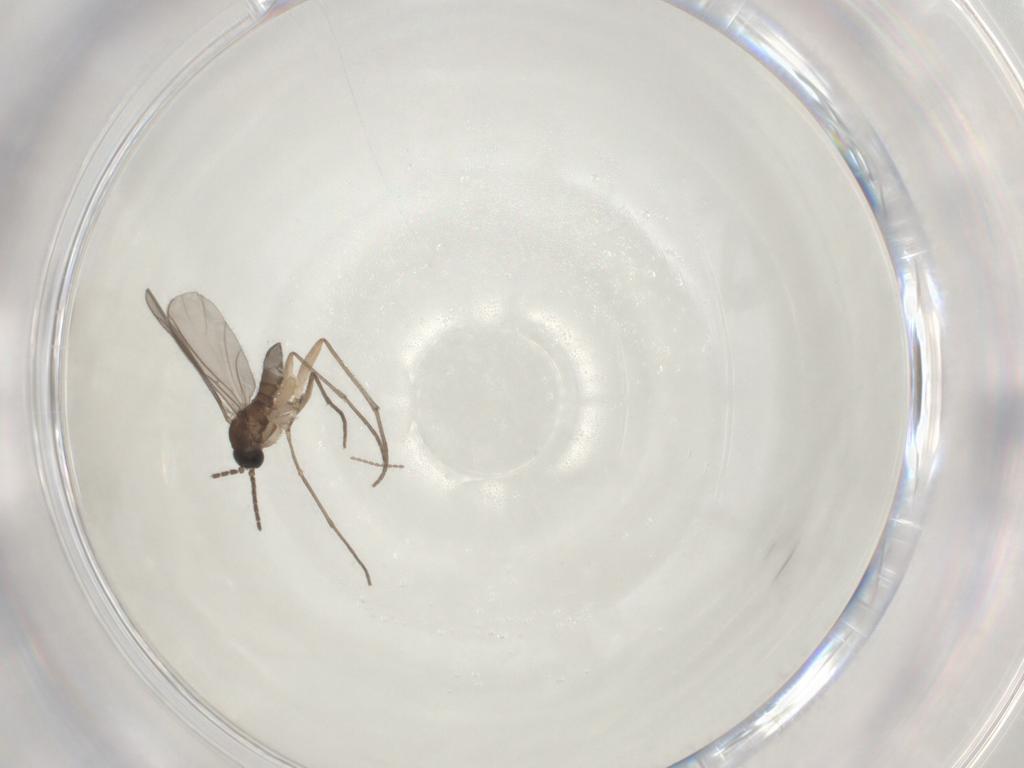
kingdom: Animalia
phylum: Arthropoda
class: Insecta
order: Diptera
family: Sciaridae
